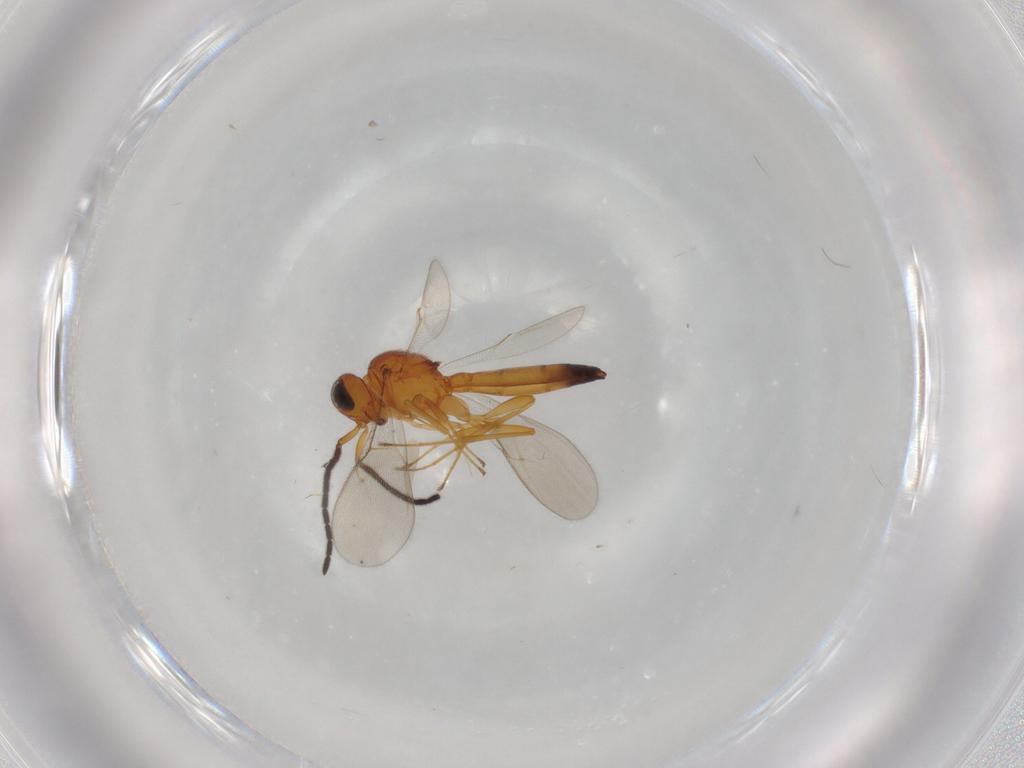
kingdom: Animalia
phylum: Arthropoda
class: Insecta
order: Hymenoptera
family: Scelionidae
